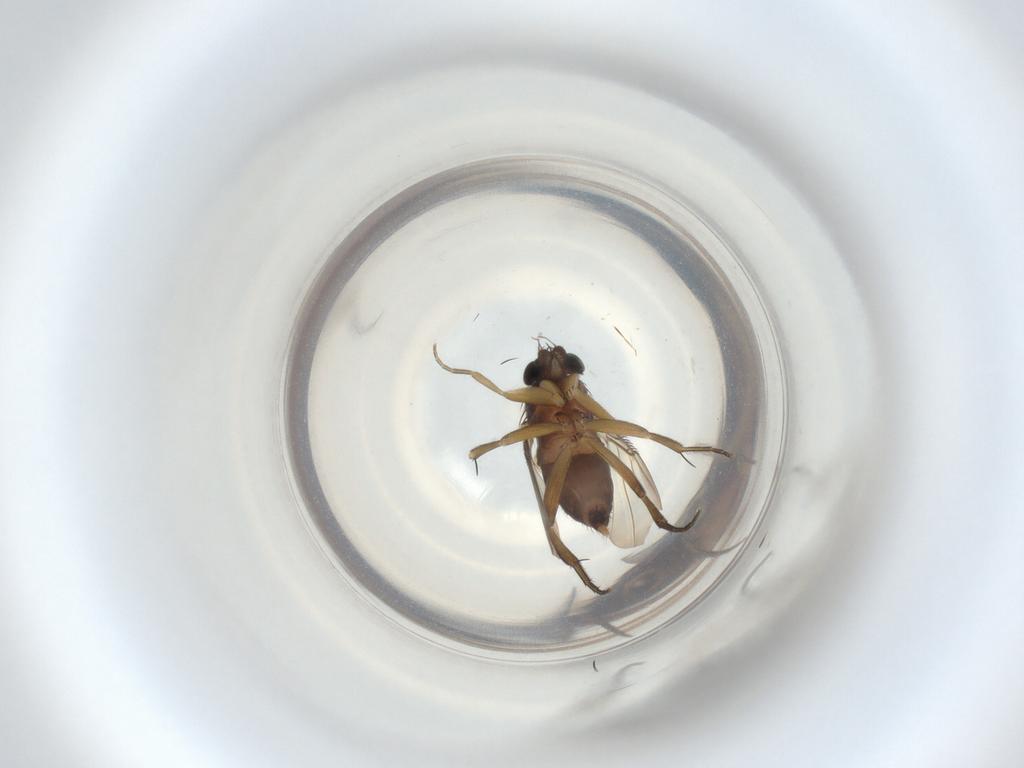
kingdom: Animalia
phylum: Arthropoda
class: Insecta
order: Diptera
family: Phoridae
